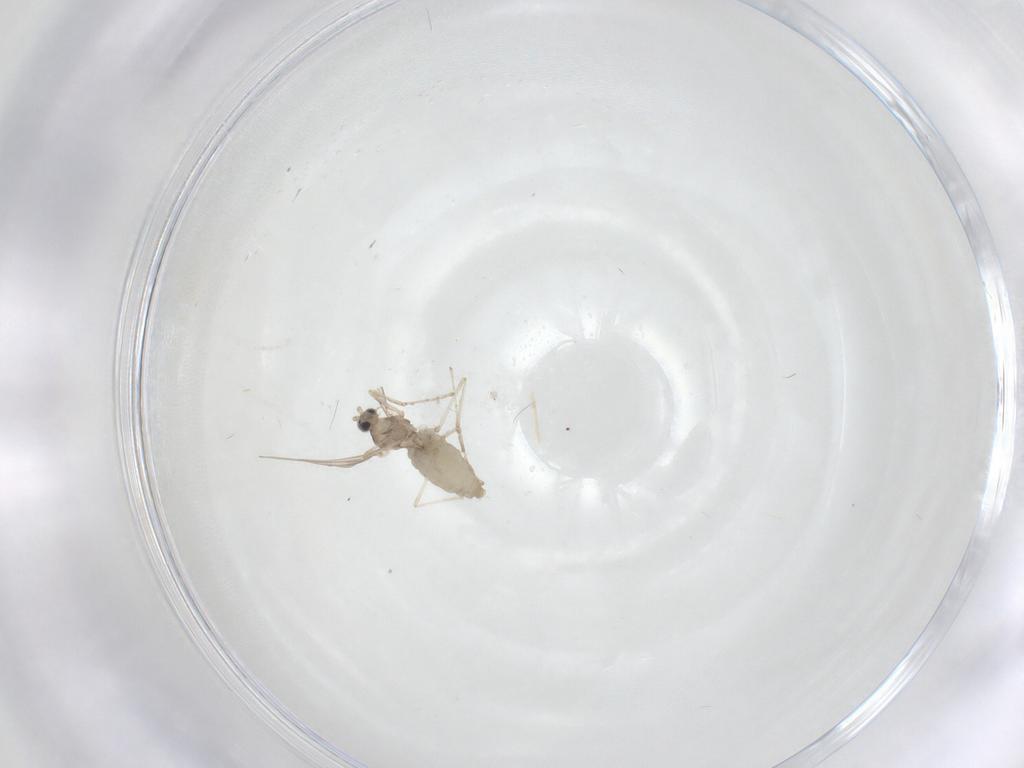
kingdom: Animalia
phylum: Arthropoda
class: Insecta
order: Diptera
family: Cecidomyiidae
